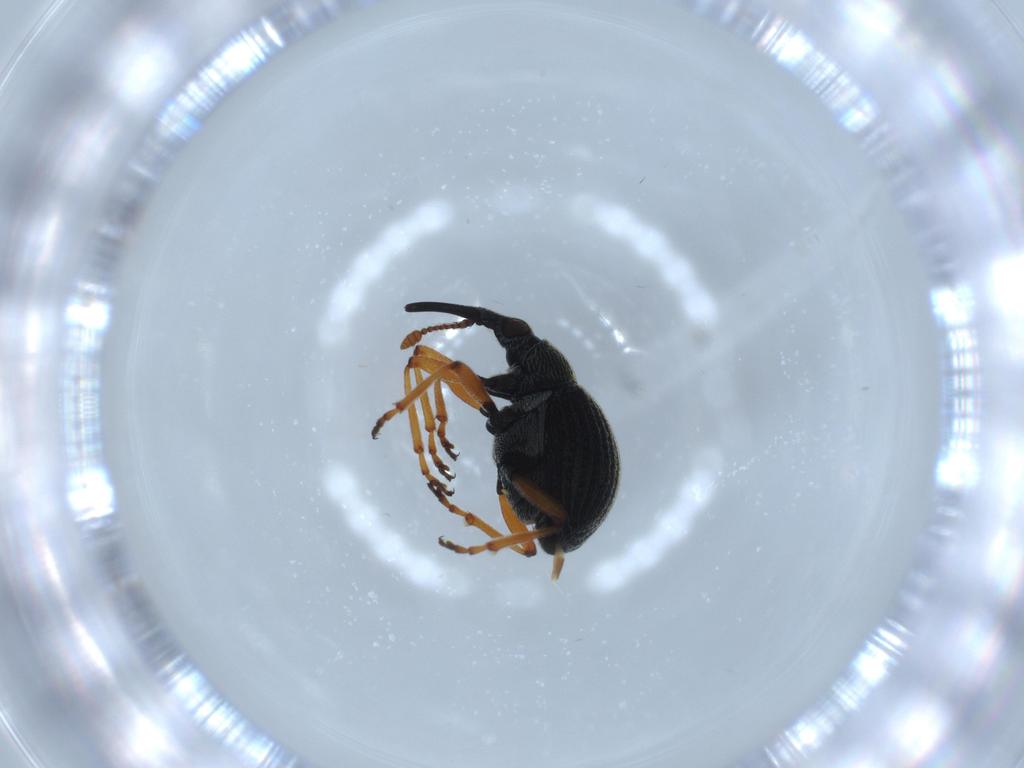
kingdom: Animalia
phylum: Arthropoda
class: Insecta
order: Coleoptera
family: Brentidae
